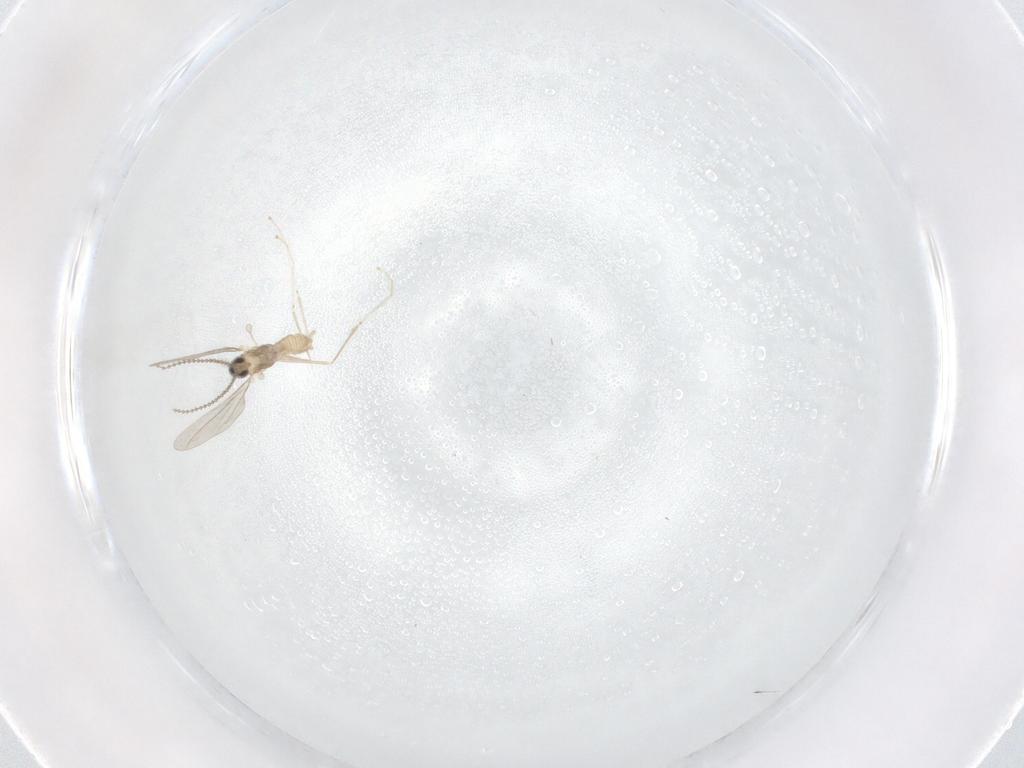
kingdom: Animalia
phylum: Arthropoda
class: Insecta
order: Diptera
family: Cecidomyiidae
